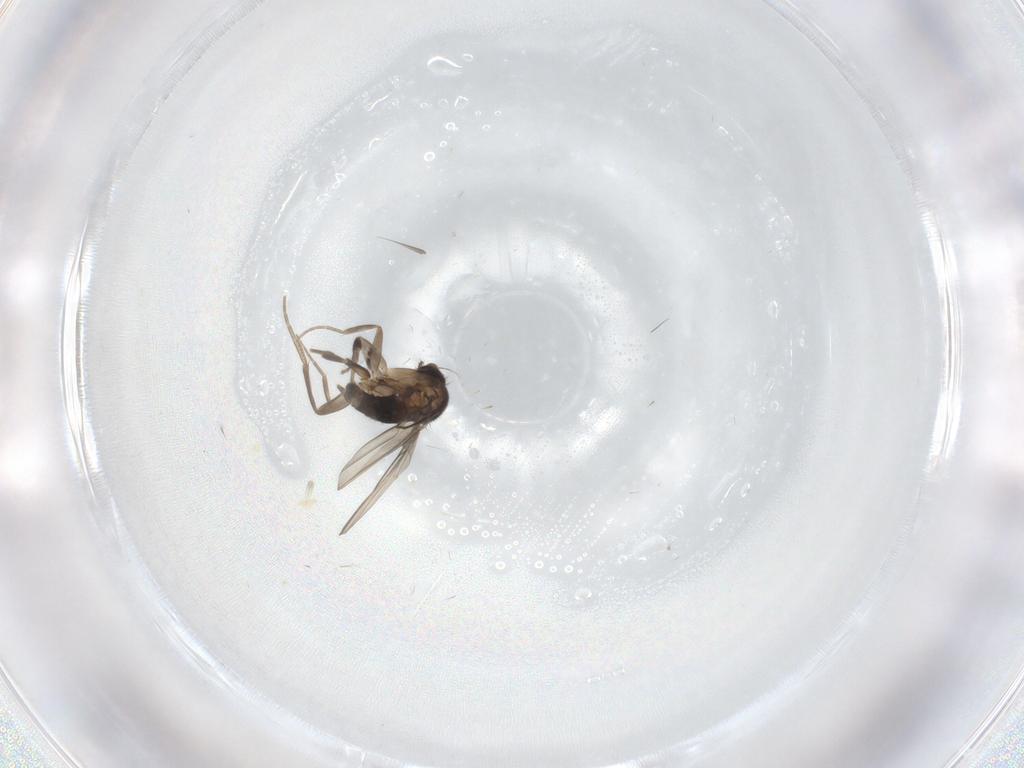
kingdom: Animalia
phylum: Arthropoda
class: Insecta
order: Diptera
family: Phoridae
